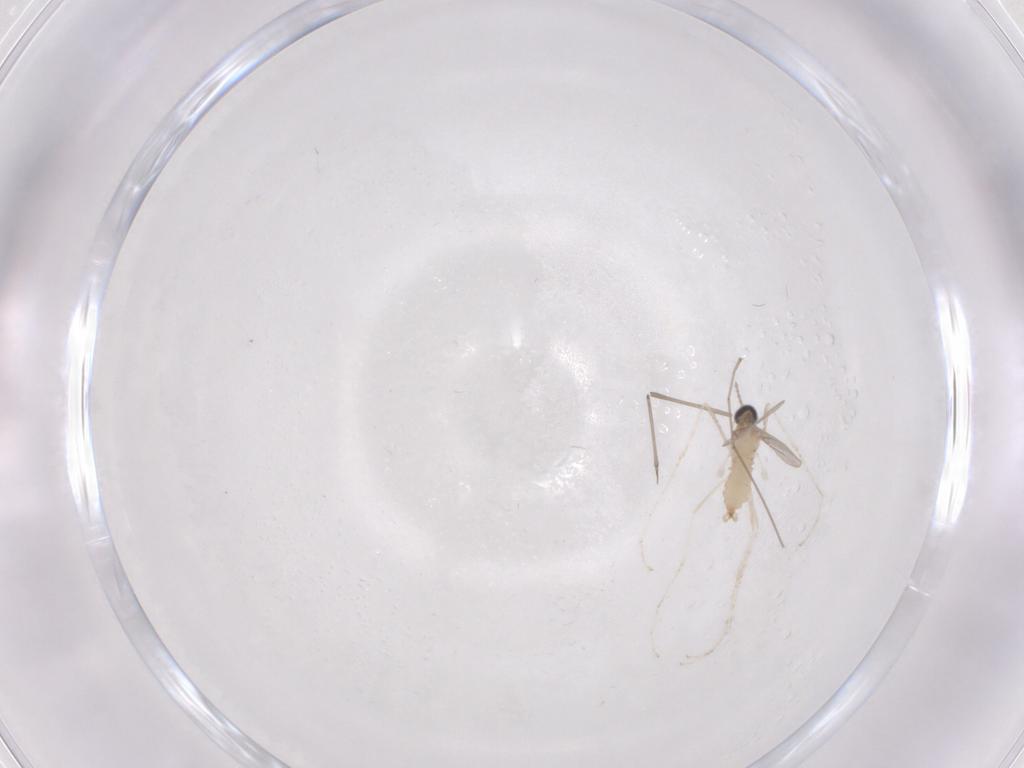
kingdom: Animalia
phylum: Arthropoda
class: Insecta
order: Diptera
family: Cecidomyiidae
